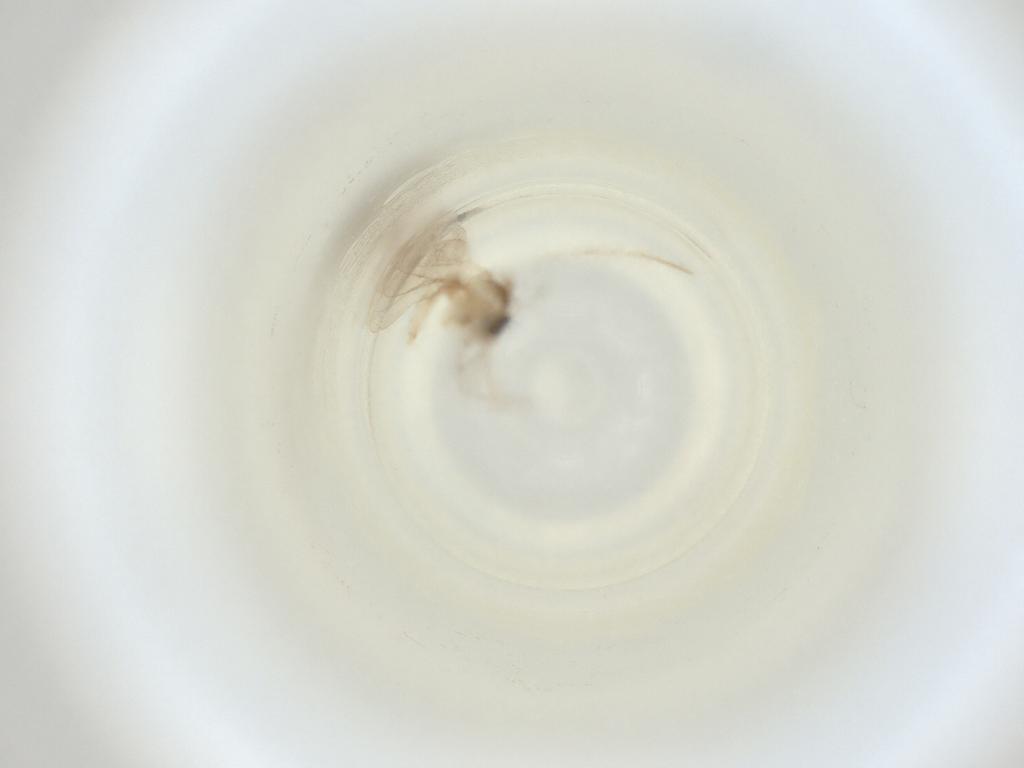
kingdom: Animalia
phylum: Arthropoda
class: Insecta
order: Diptera
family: Cecidomyiidae
